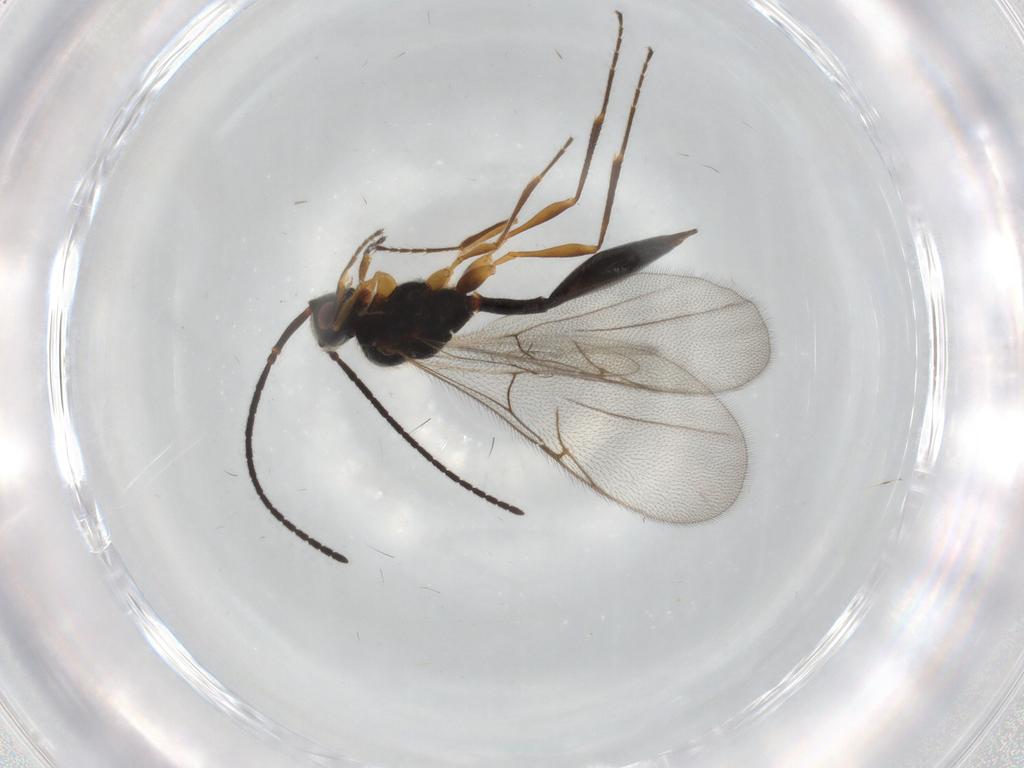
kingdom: Animalia
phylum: Arthropoda
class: Insecta
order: Hymenoptera
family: Diapriidae
